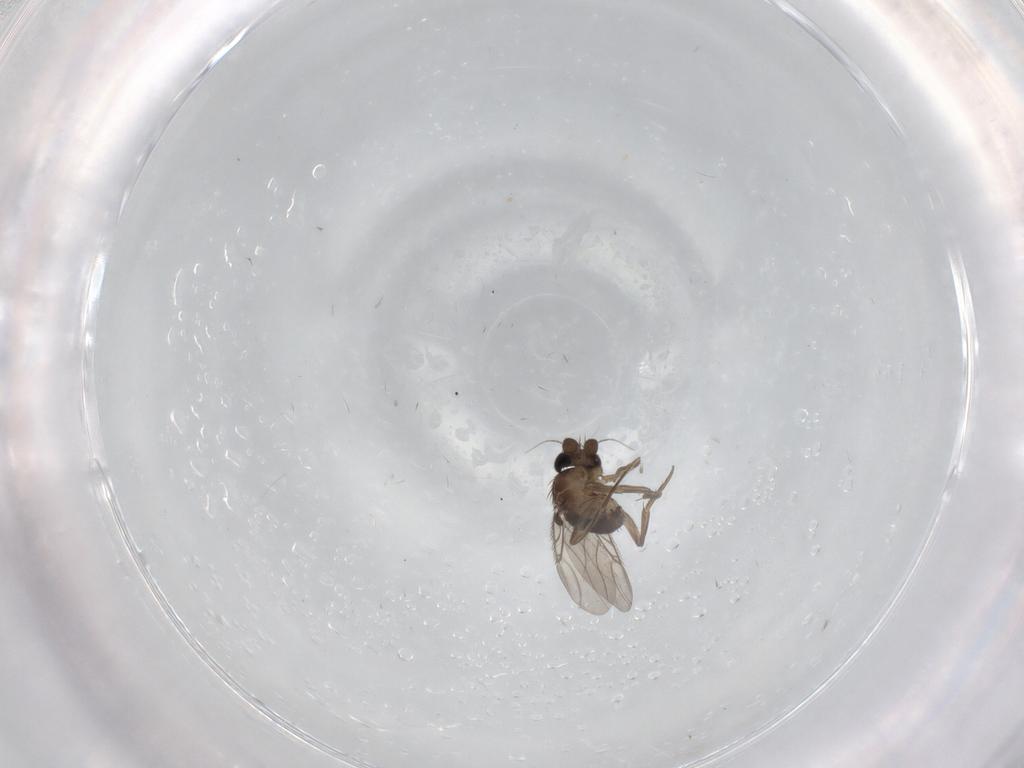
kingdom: Animalia
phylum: Arthropoda
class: Insecta
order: Diptera
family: Phoridae
